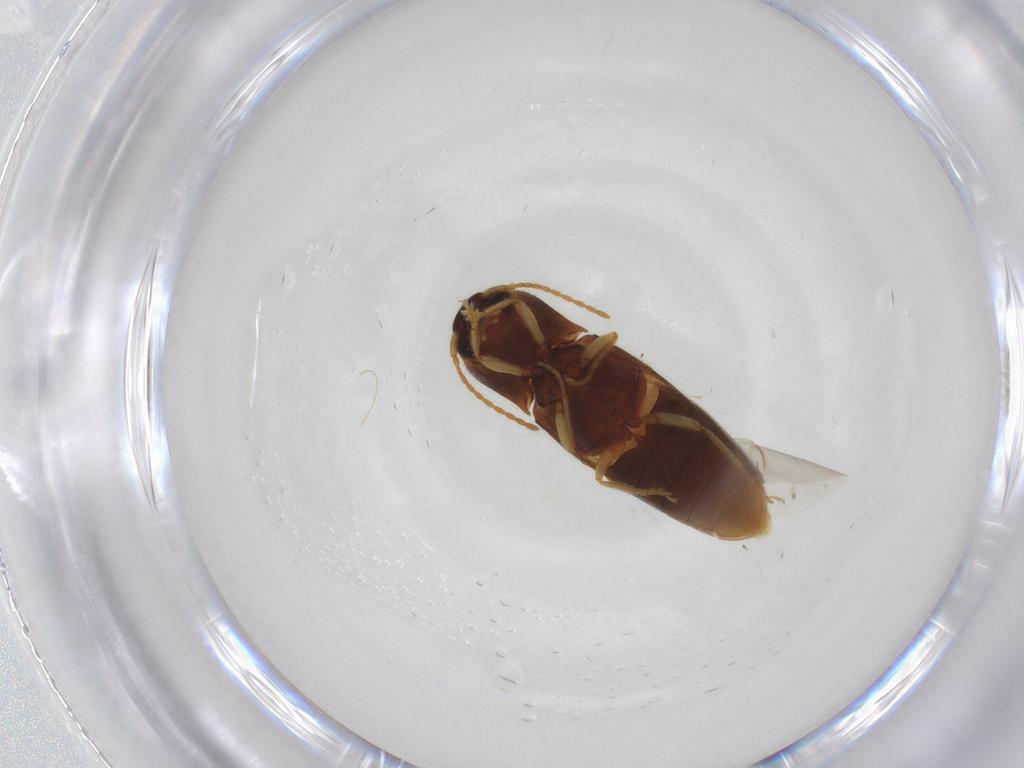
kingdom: Animalia
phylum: Arthropoda
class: Insecta
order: Coleoptera
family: Elateridae
